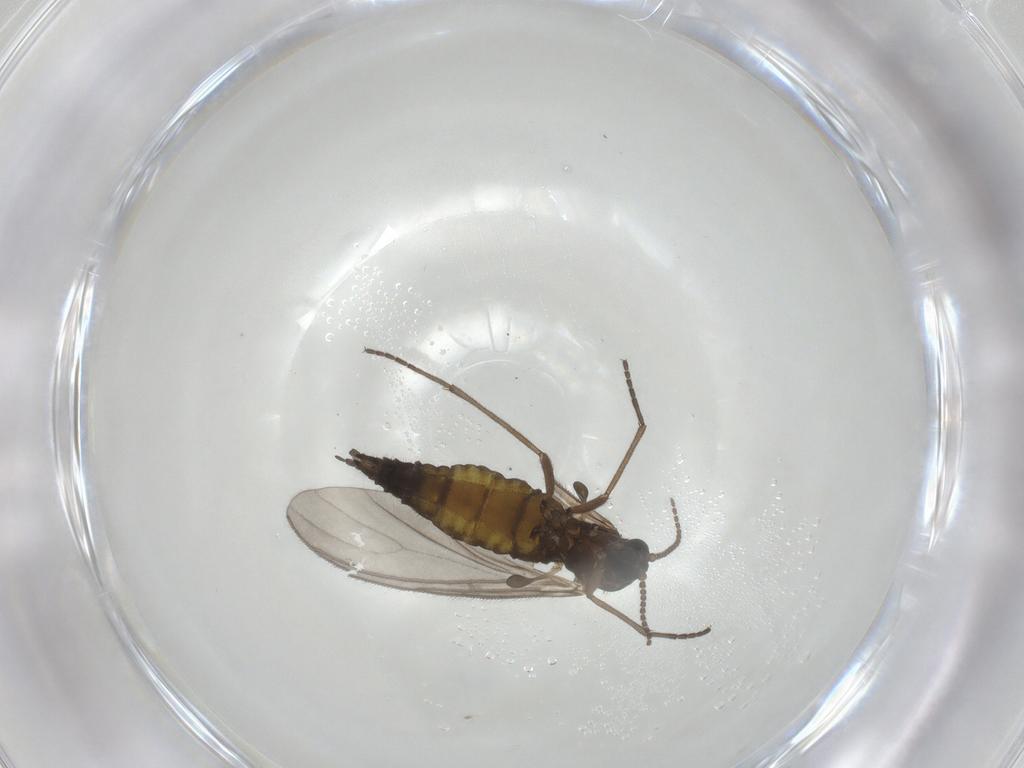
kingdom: Animalia
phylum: Arthropoda
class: Insecta
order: Diptera
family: Sciaridae
